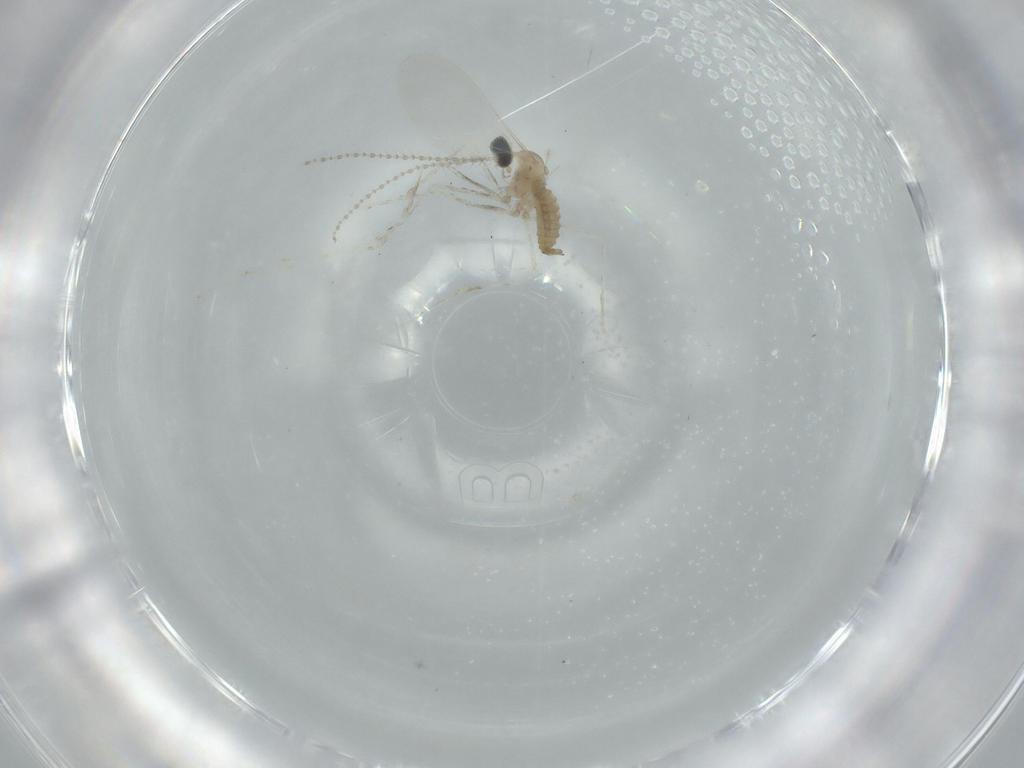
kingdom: Animalia
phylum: Arthropoda
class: Insecta
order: Diptera
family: Cecidomyiidae
